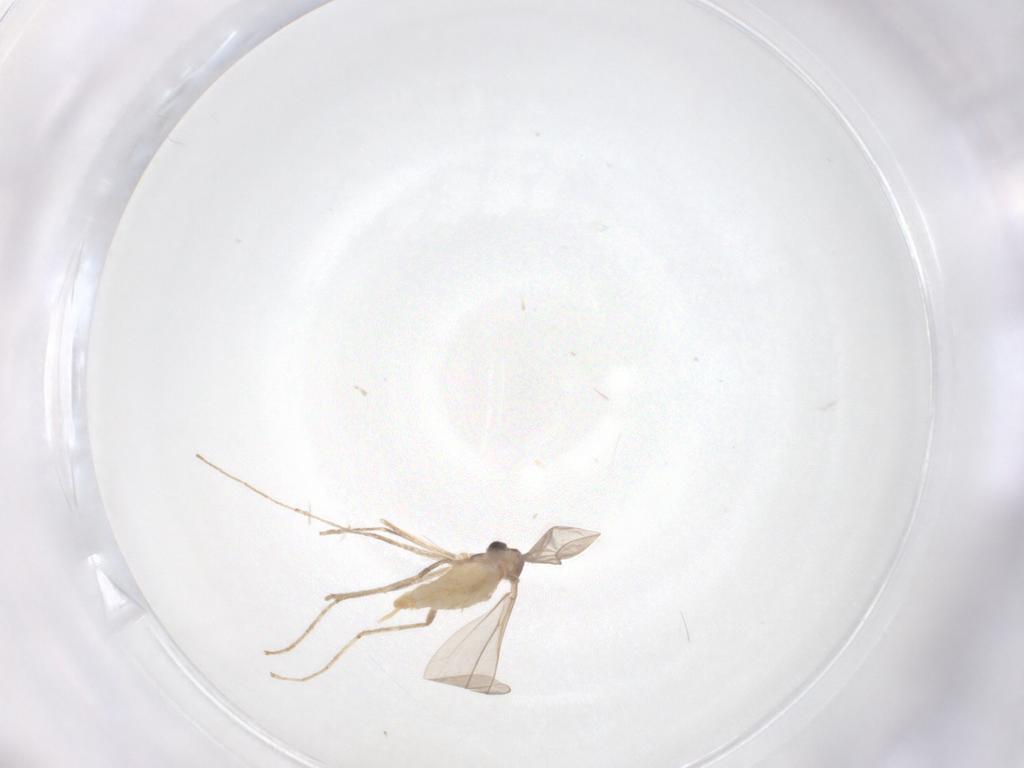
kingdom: Animalia
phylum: Arthropoda
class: Insecta
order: Diptera
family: Cecidomyiidae
